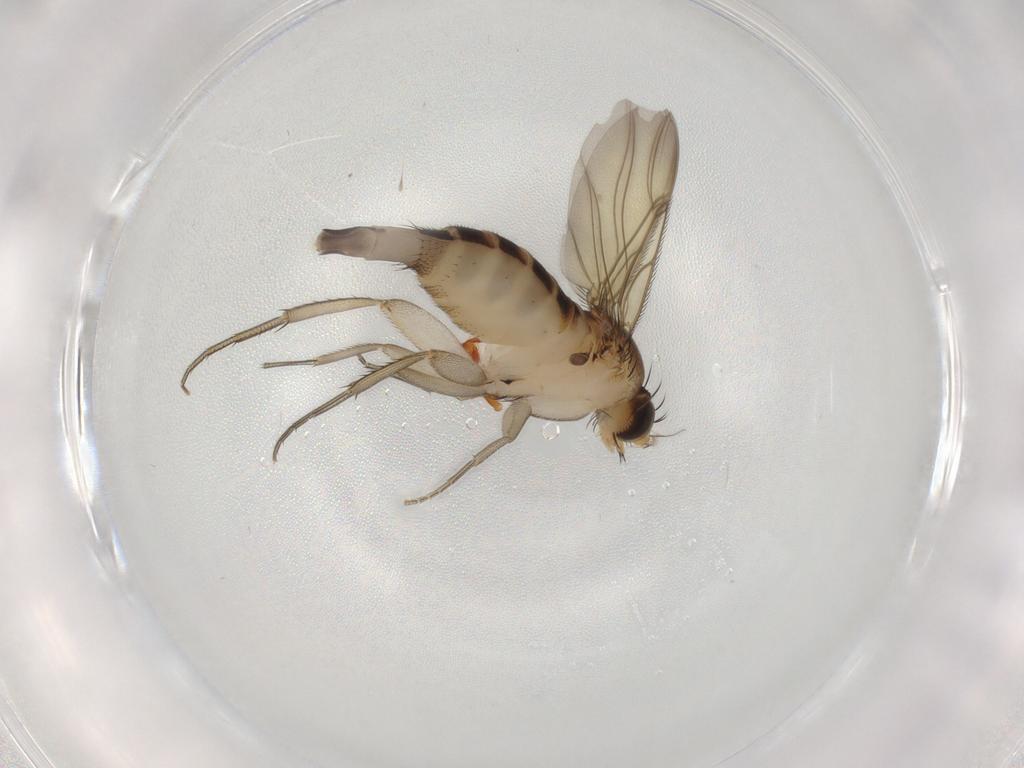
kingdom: Animalia
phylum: Arthropoda
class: Insecta
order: Diptera
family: Phoridae
